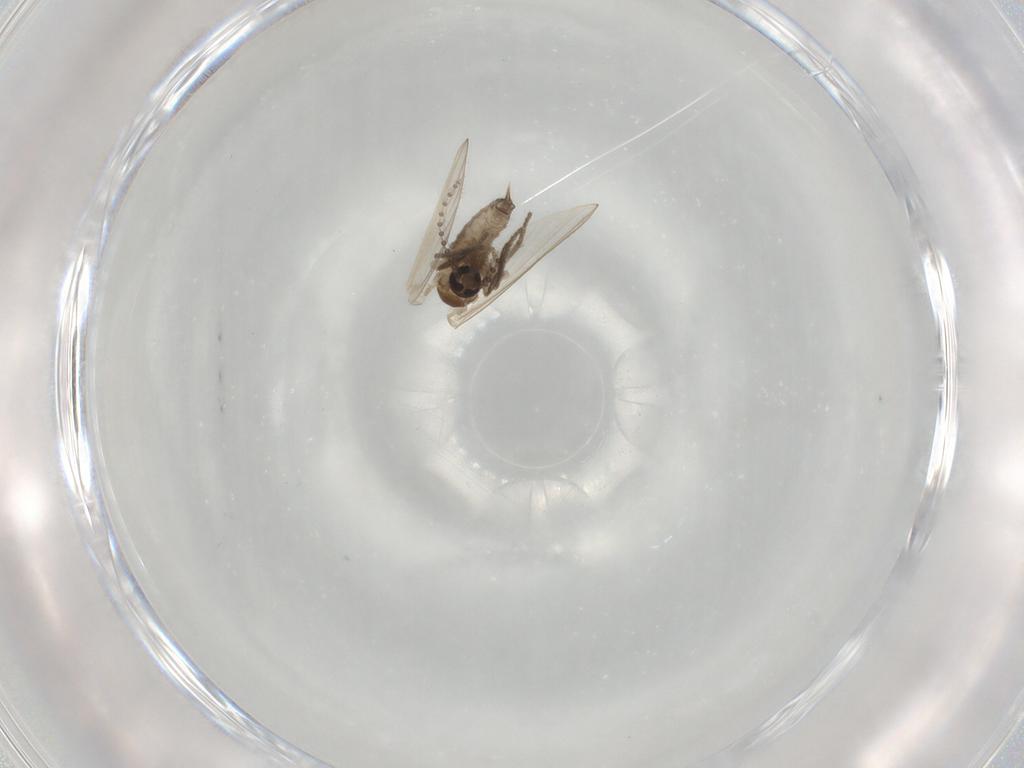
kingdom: Animalia
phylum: Arthropoda
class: Insecta
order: Diptera
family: Psychodidae
